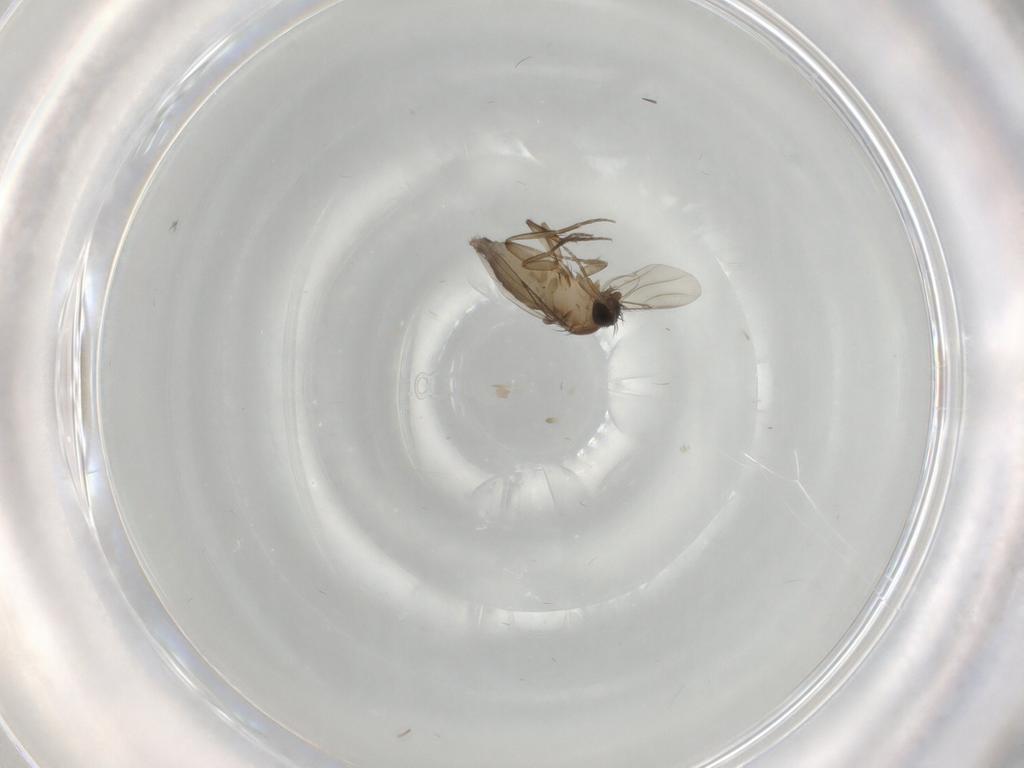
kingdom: Animalia
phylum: Arthropoda
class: Insecta
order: Diptera
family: Phoridae
